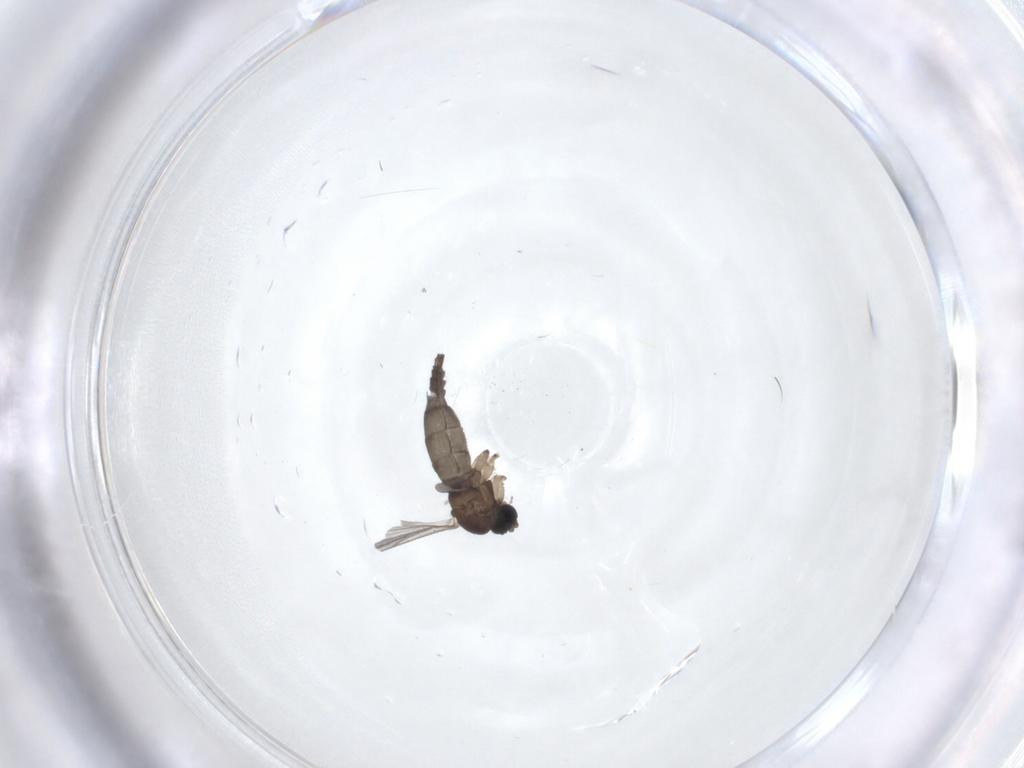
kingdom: Animalia
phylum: Arthropoda
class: Insecta
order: Diptera
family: Sciaridae
